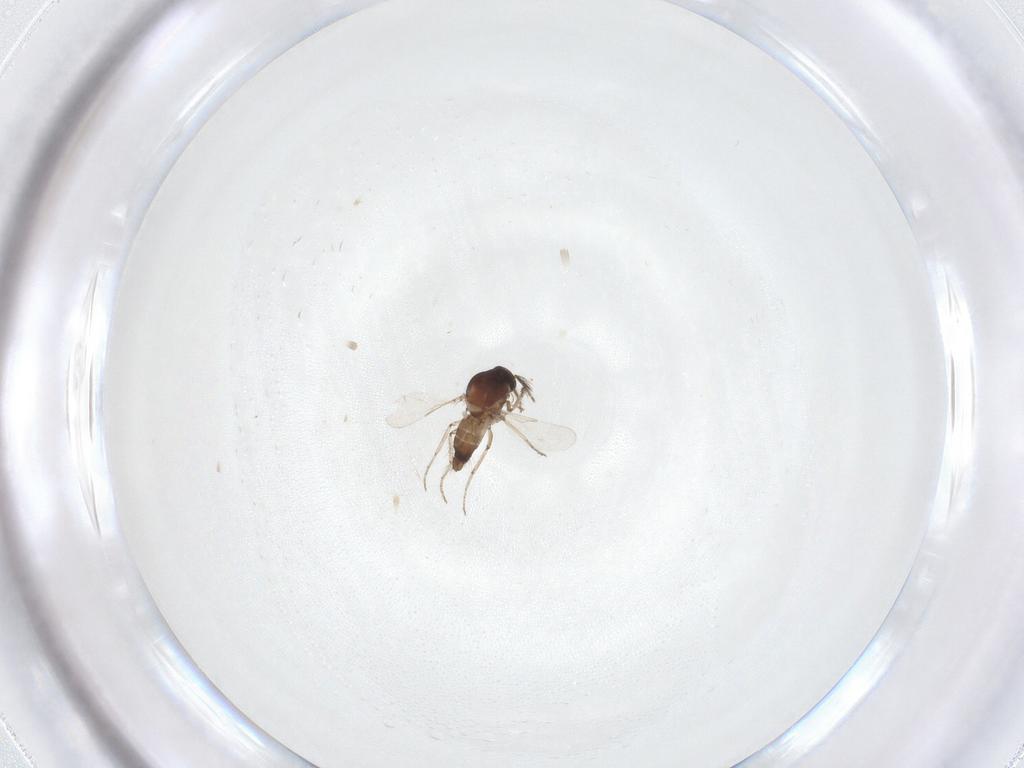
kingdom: Animalia
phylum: Arthropoda
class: Insecta
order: Diptera
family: Ceratopogonidae
